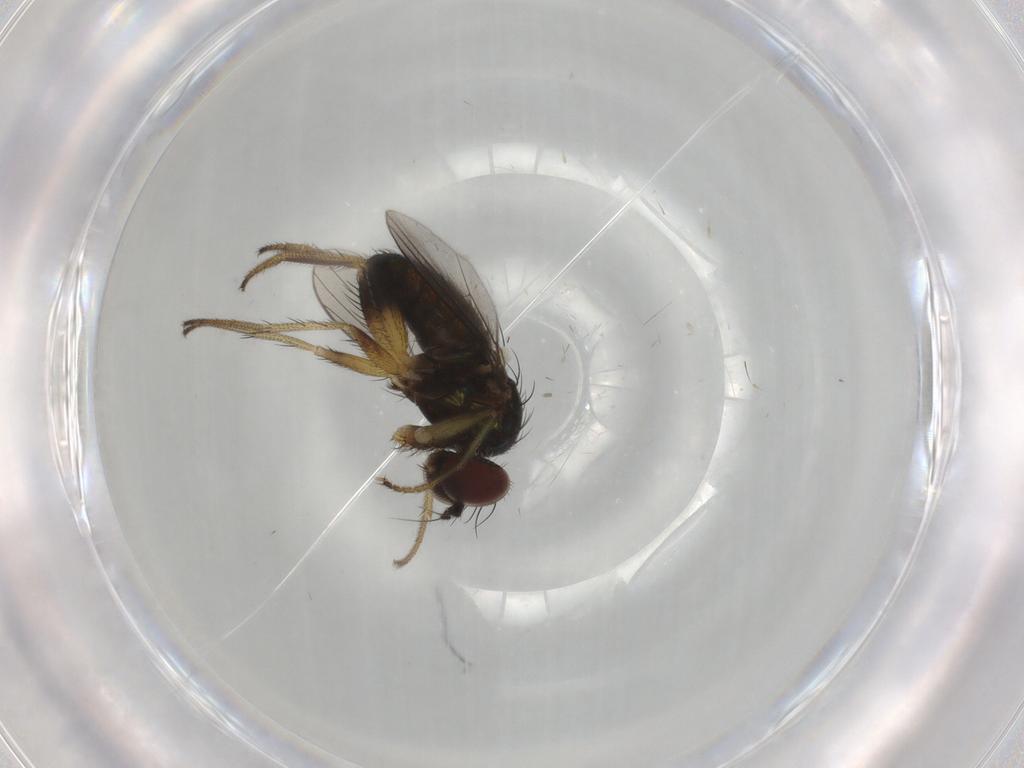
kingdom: Animalia
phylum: Arthropoda
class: Insecta
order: Diptera
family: Dolichopodidae
